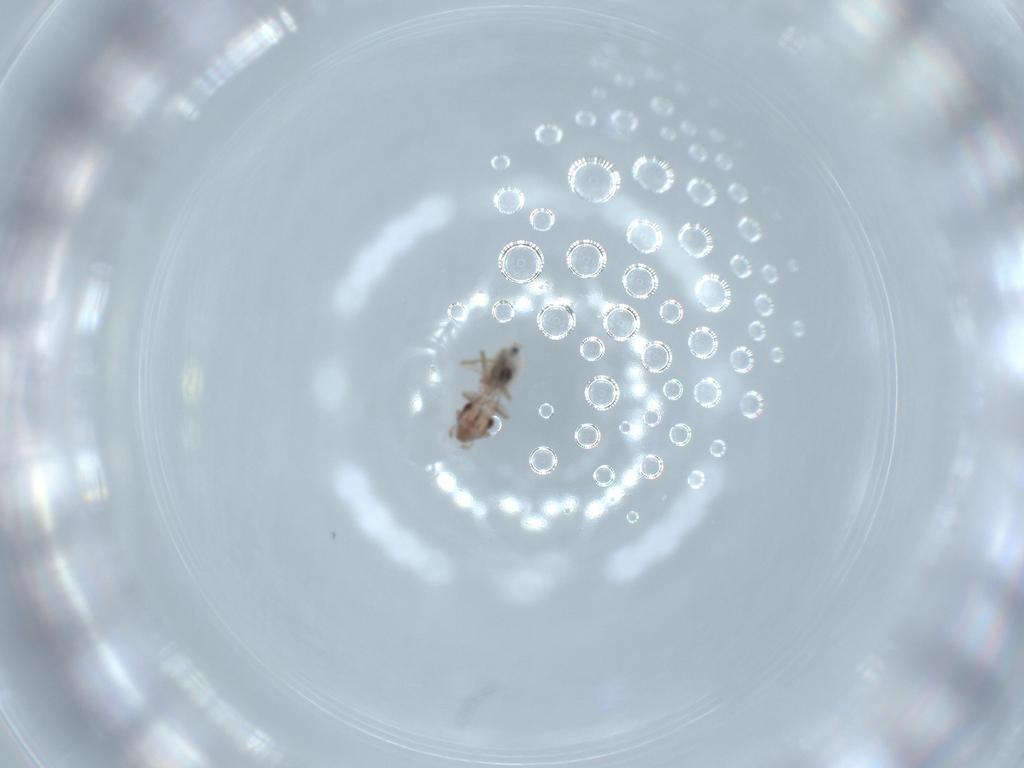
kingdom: Animalia
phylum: Arthropoda
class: Insecta
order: Psocodea
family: Lepidopsocidae
